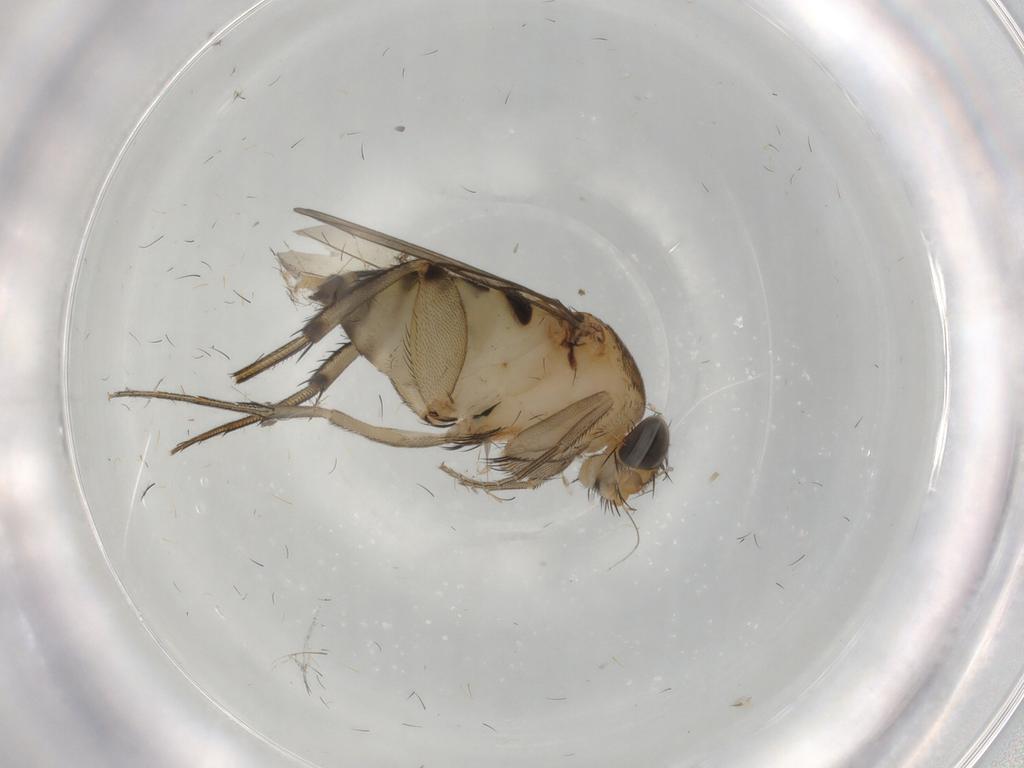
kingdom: Animalia
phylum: Arthropoda
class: Insecta
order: Diptera
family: Chironomidae
